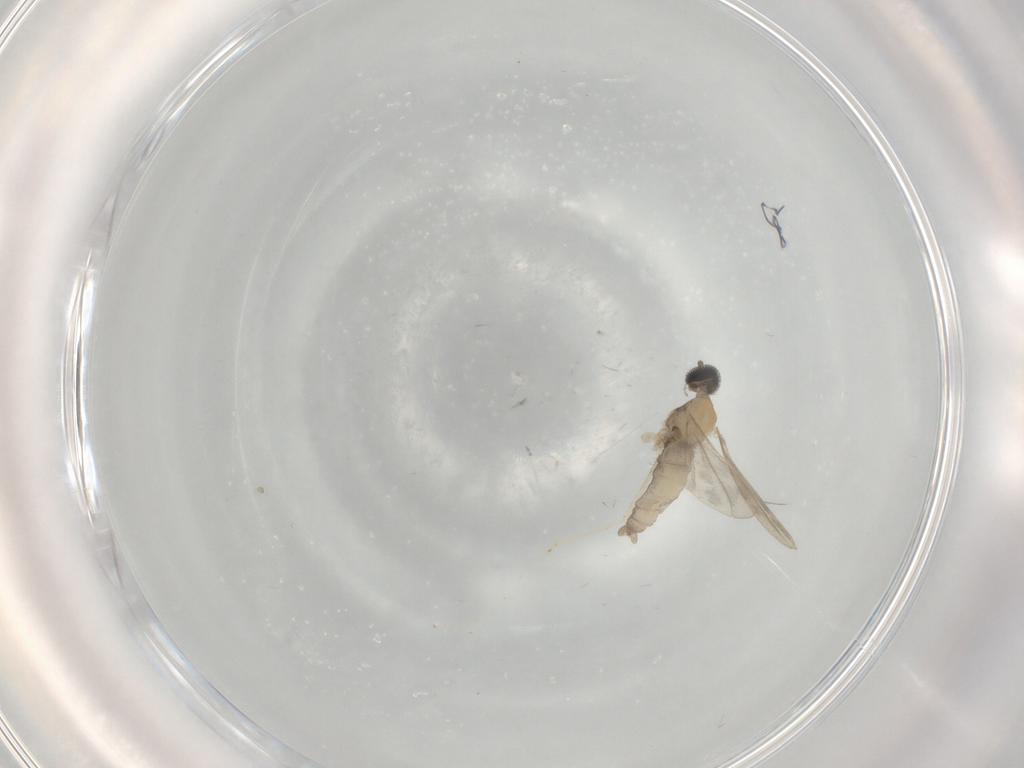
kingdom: Animalia
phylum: Arthropoda
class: Insecta
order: Diptera
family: Cecidomyiidae
